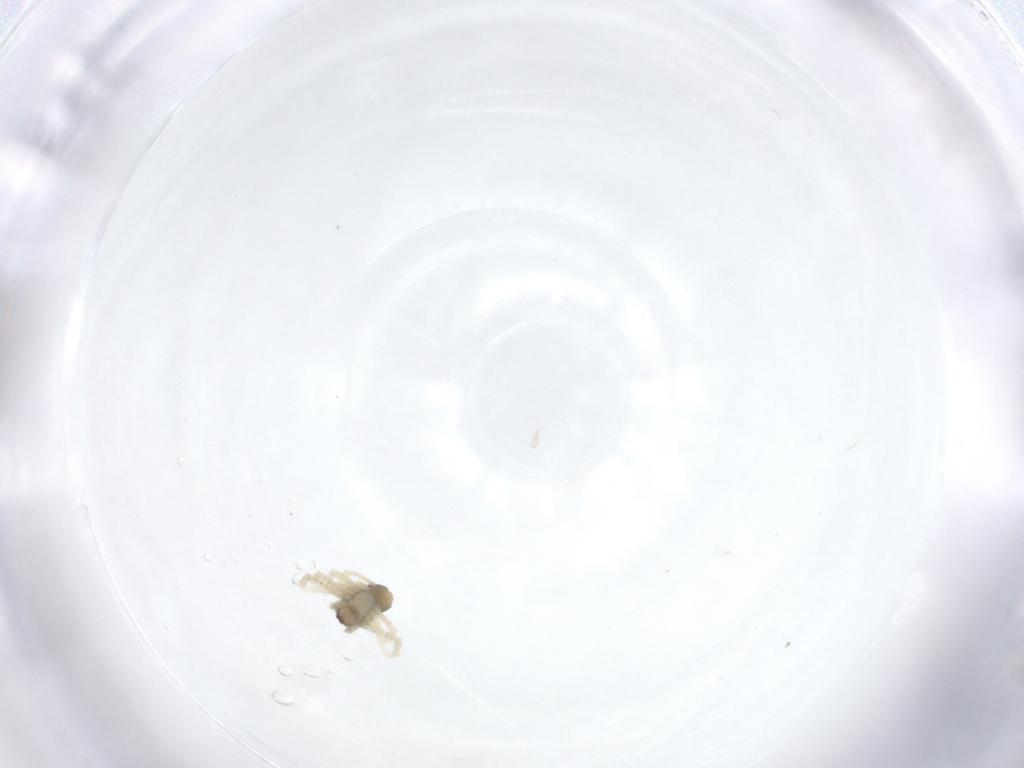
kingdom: Animalia
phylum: Arthropoda
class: Arachnida
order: Araneae
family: Theridiidae
